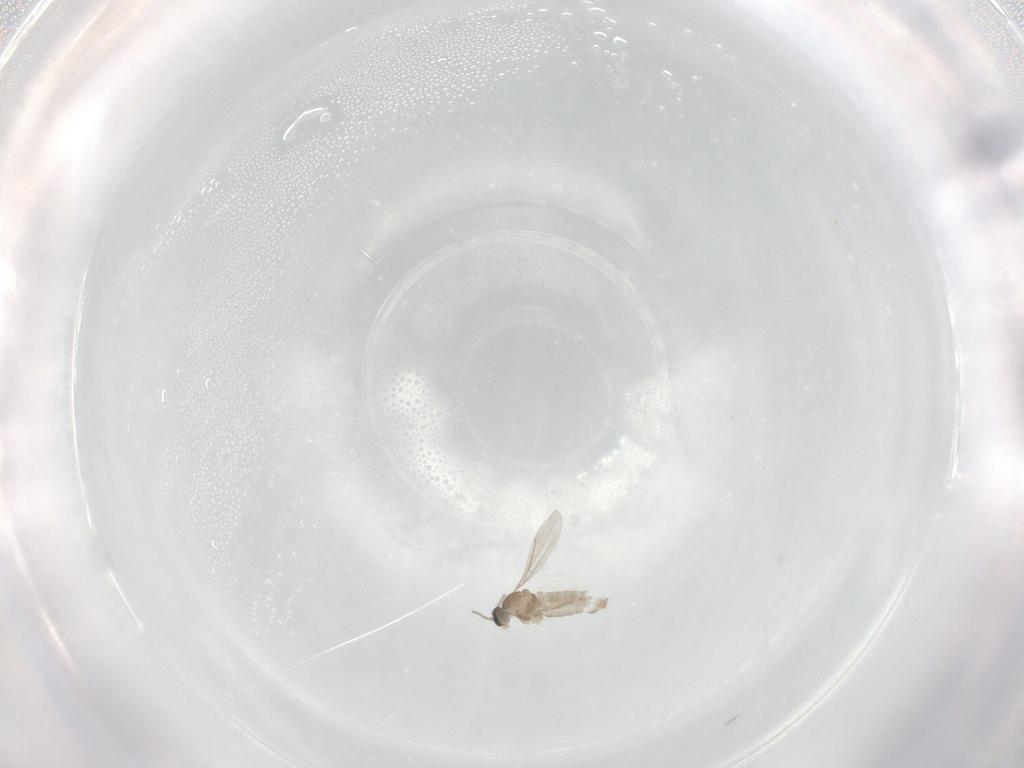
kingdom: Animalia
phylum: Arthropoda
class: Insecta
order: Diptera
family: Cecidomyiidae
